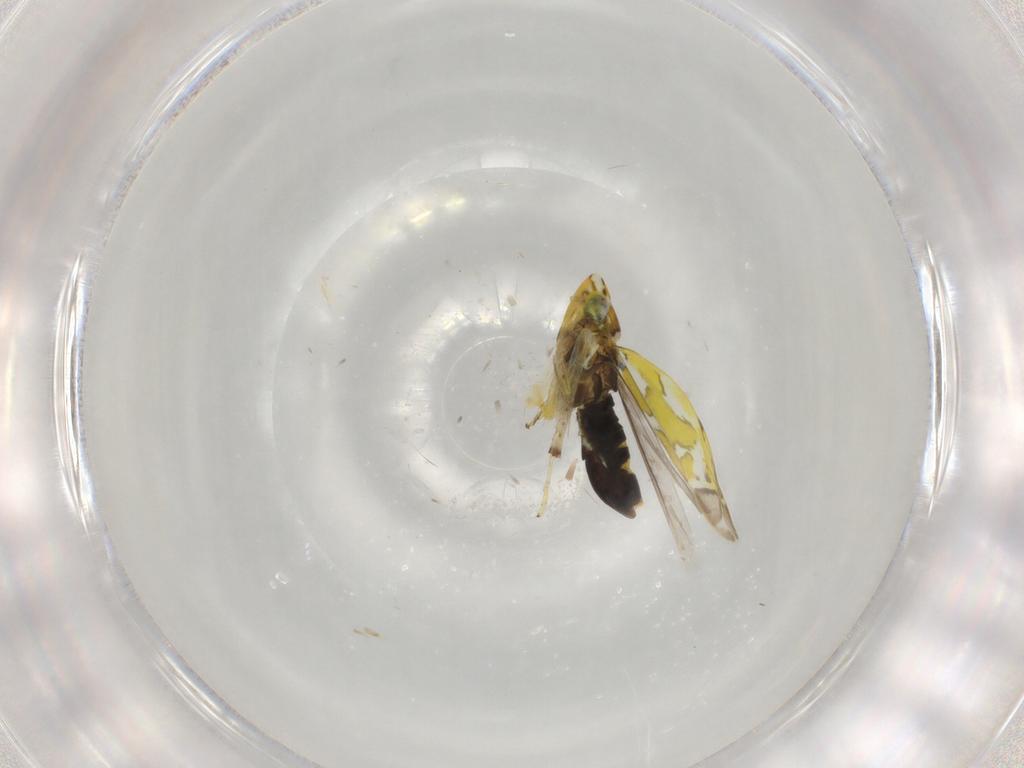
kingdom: Animalia
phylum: Arthropoda
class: Insecta
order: Hemiptera
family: Cicadellidae
